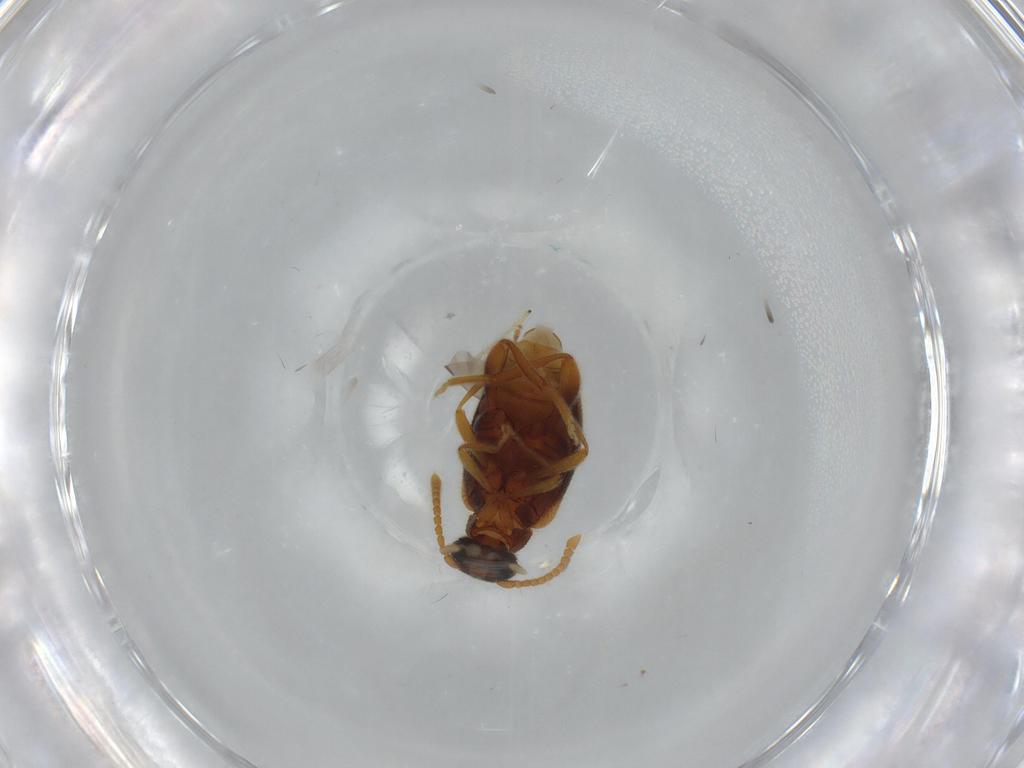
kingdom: Animalia
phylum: Arthropoda
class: Insecta
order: Coleoptera
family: Aderidae
